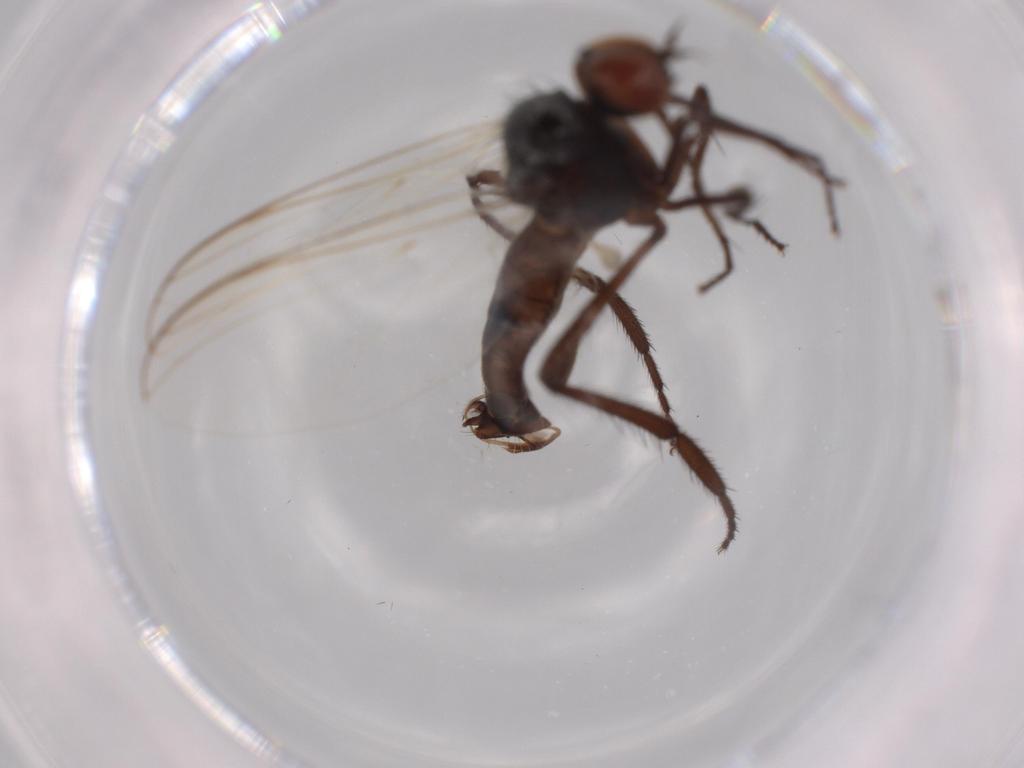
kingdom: Animalia
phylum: Arthropoda
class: Insecta
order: Diptera
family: Empididae
